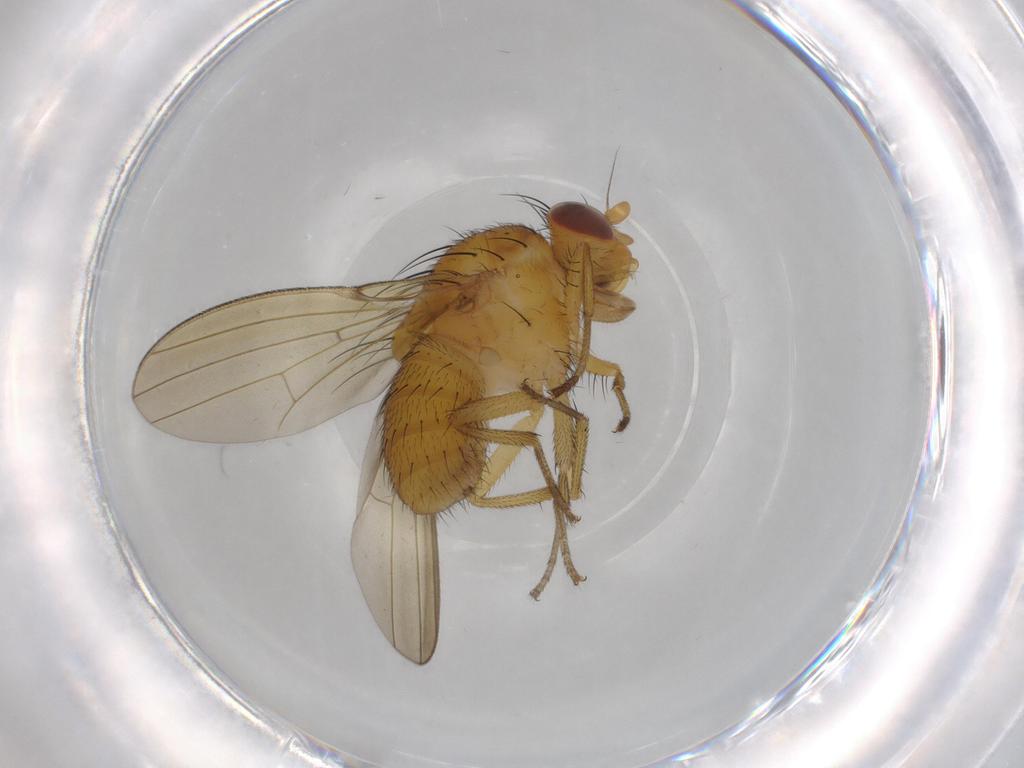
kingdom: Animalia
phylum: Arthropoda
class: Insecta
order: Diptera
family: Lauxaniidae
